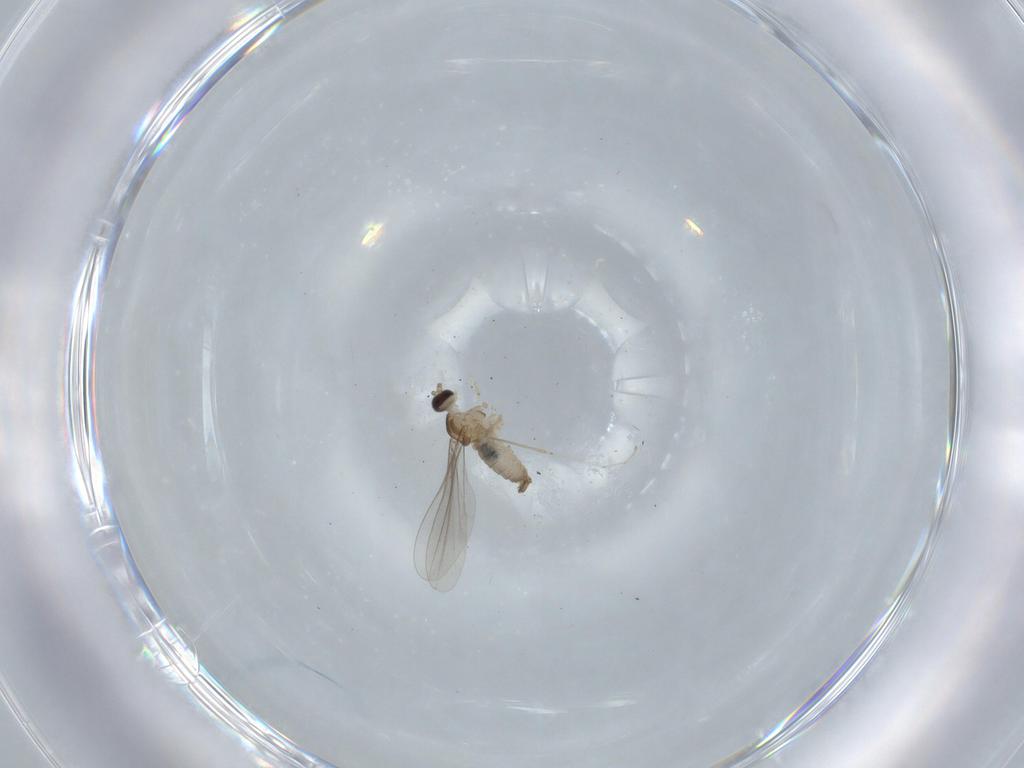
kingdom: Animalia
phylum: Arthropoda
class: Insecta
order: Diptera
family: Cecidomyiidae
